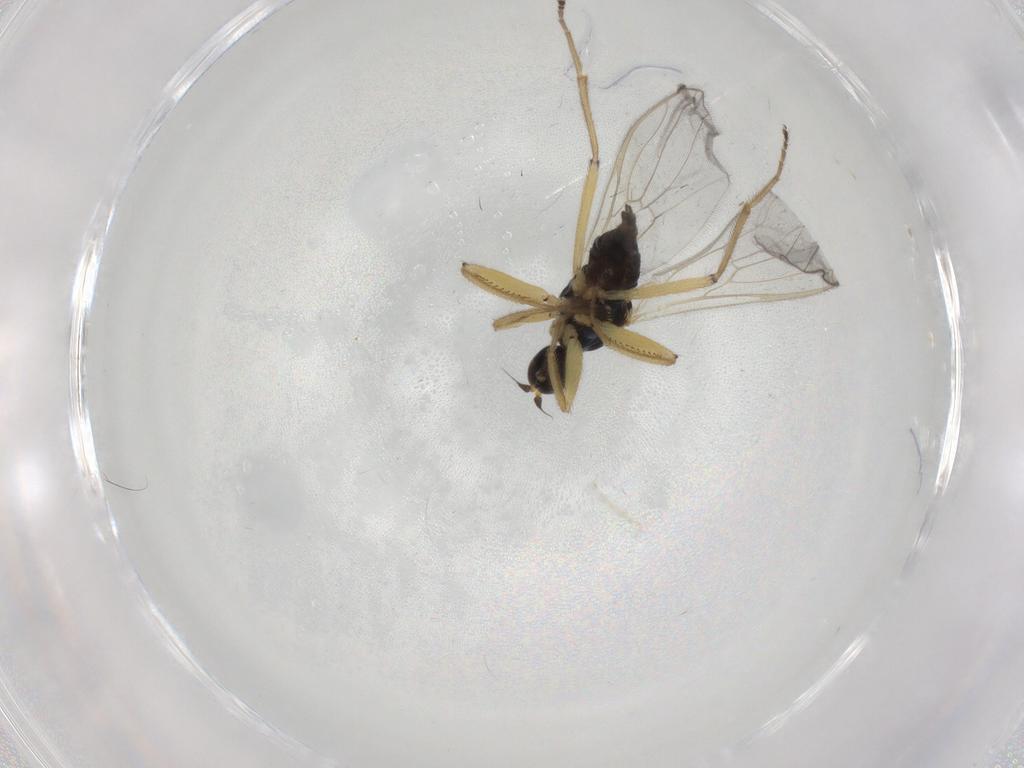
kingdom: Animalia
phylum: Arthropoda
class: Insecta
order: Diptera
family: Hybotidae
